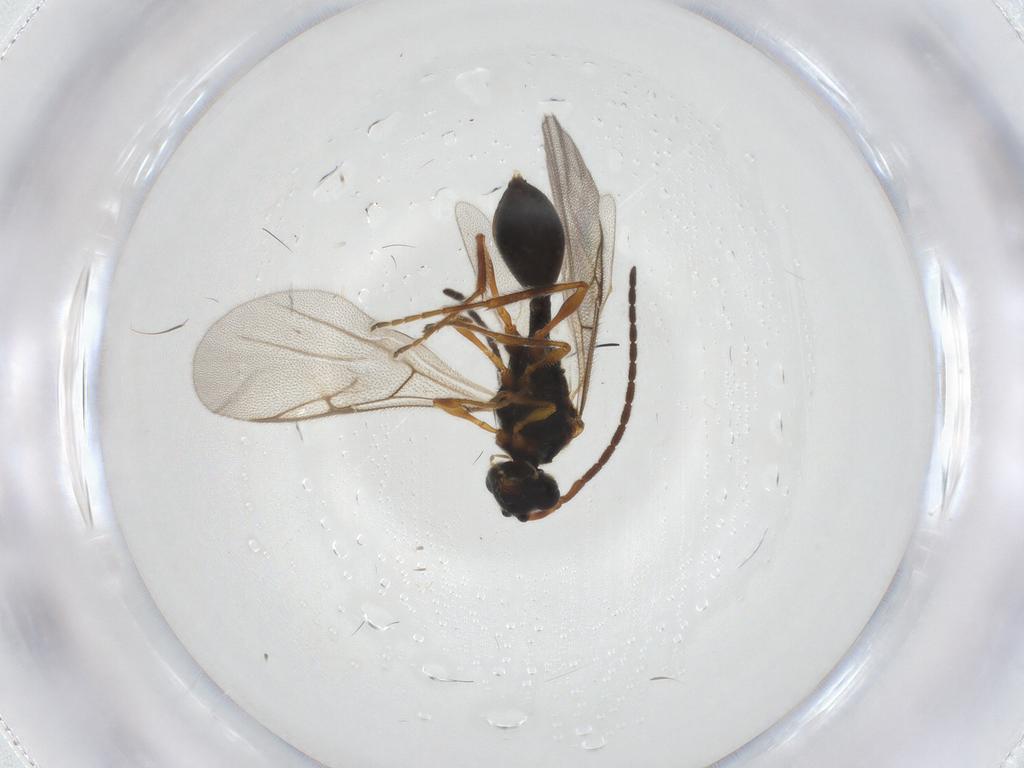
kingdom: Animalia
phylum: Arthropoda
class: Insecta
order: Hymenoptera
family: Diapriidae
